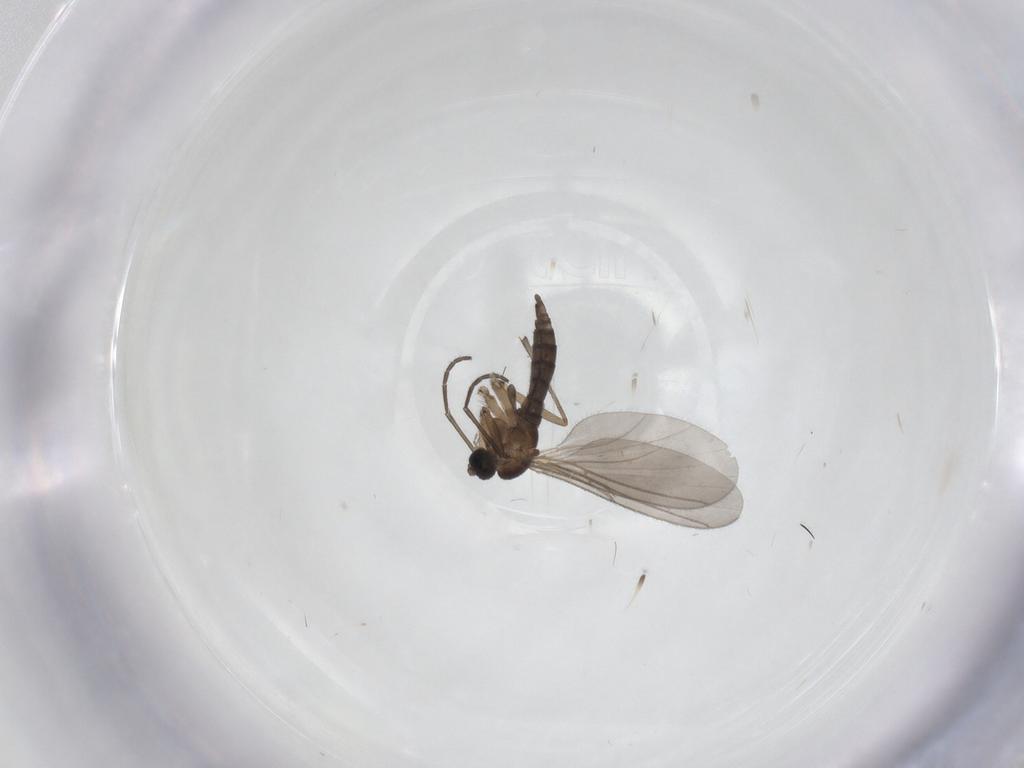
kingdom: Animalia
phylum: Arthropoda
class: Insecta
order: Diptera
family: Sciaridae
